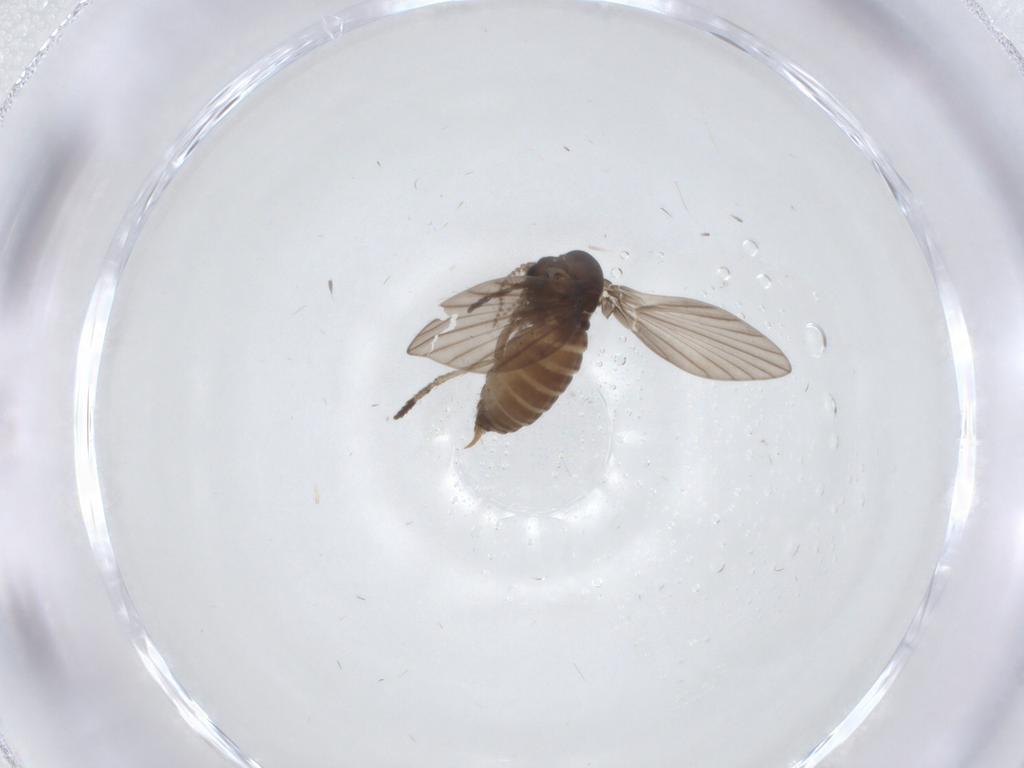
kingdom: Animalia
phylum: Arthropoda
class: Insecta
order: Diptera
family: Psychodidae
